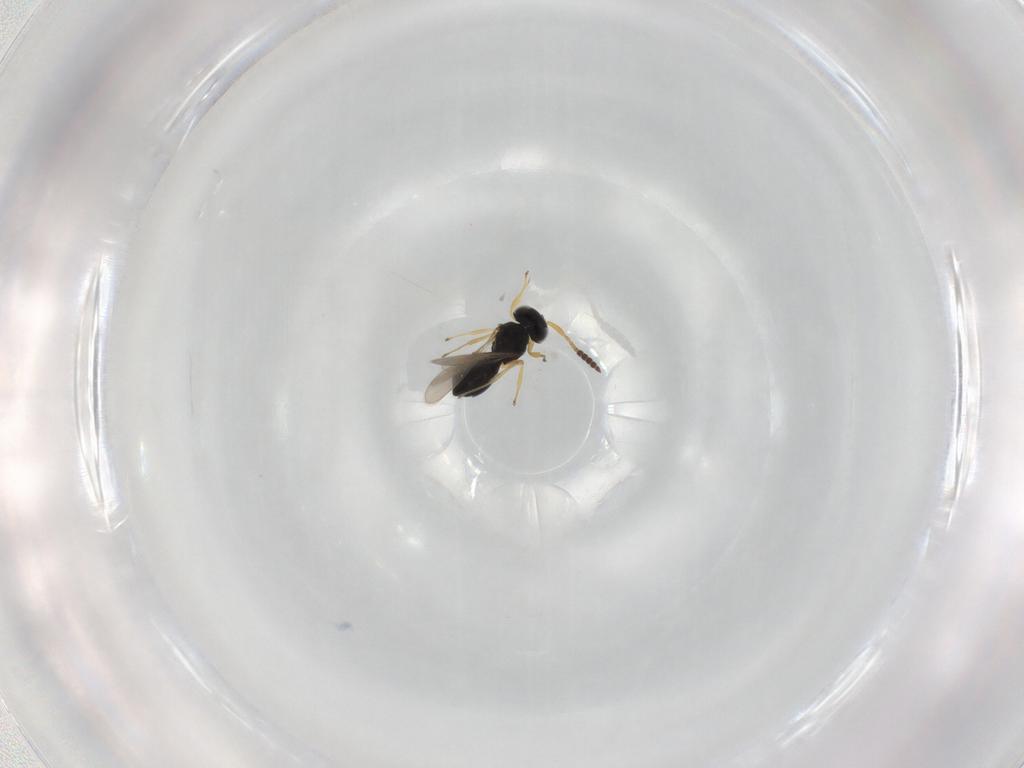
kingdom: Animalia
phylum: Arthropoda
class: Insecta
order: Hymenoptera
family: Scelionidae
